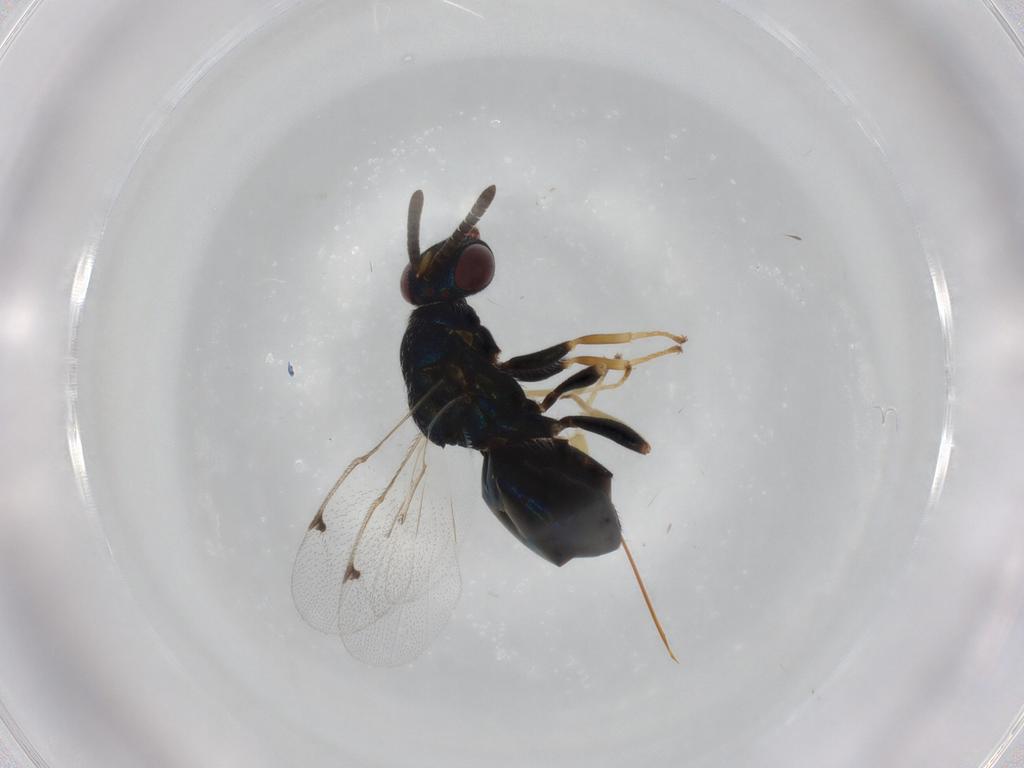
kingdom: Animalia
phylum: Arthropoda
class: Insecta
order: Hymenoptera
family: Torymidae
